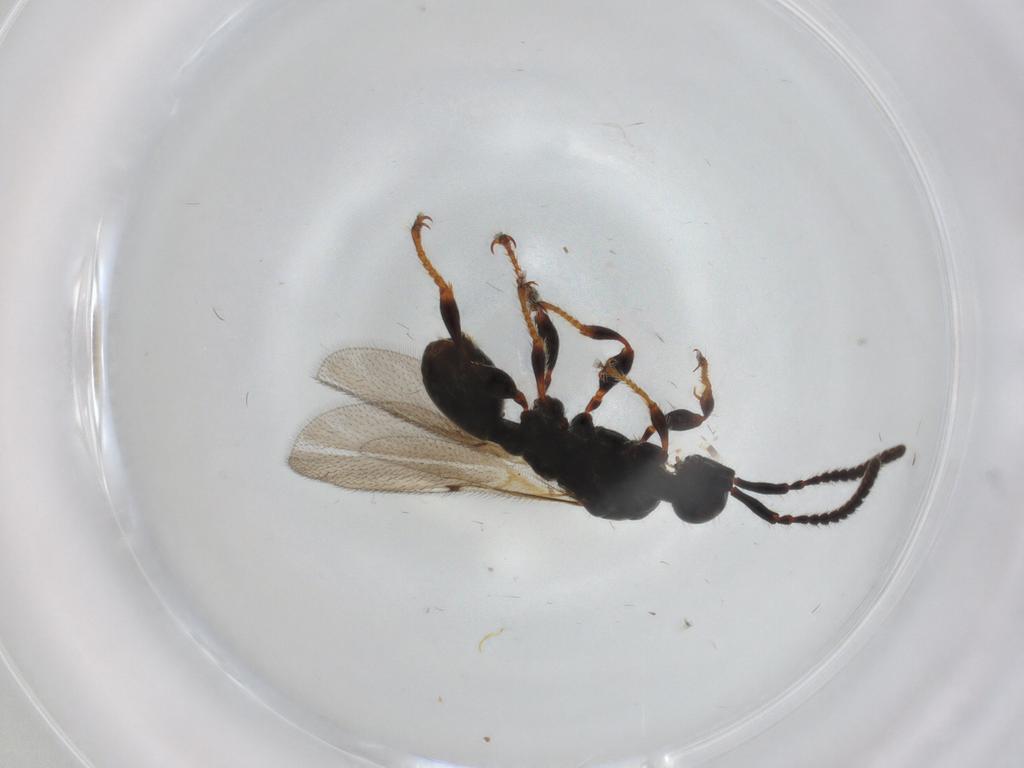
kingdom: Animalia
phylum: Arthropoda
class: Insecta
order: Hymenoptera
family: Diapriidae
